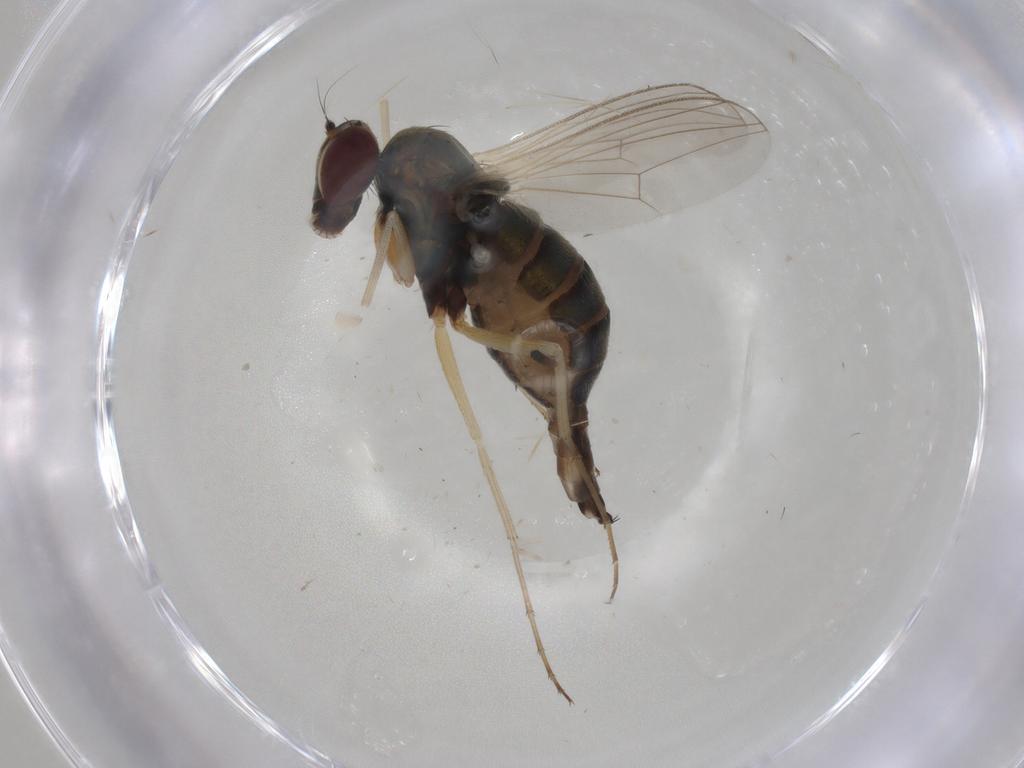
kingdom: Animalia
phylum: Arthropoda
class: Insecta
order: Diptera
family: Dolichopodidae
